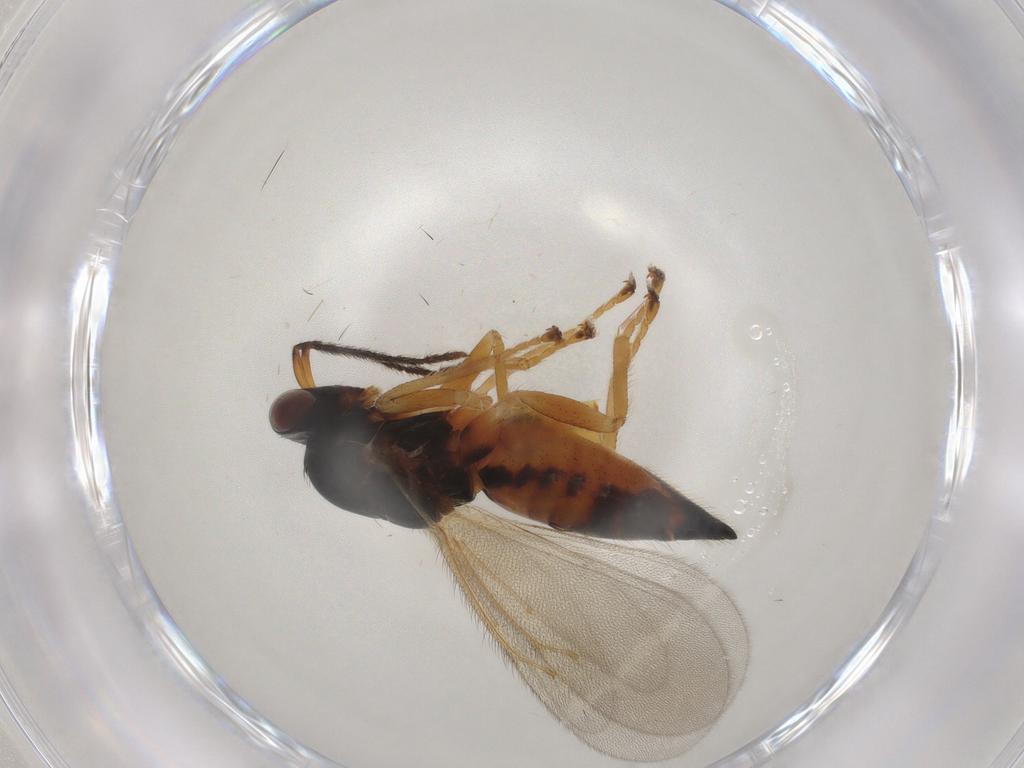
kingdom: Animalia
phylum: Arthropoda
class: Insecta
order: Hymenoptera
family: Eulophidae
